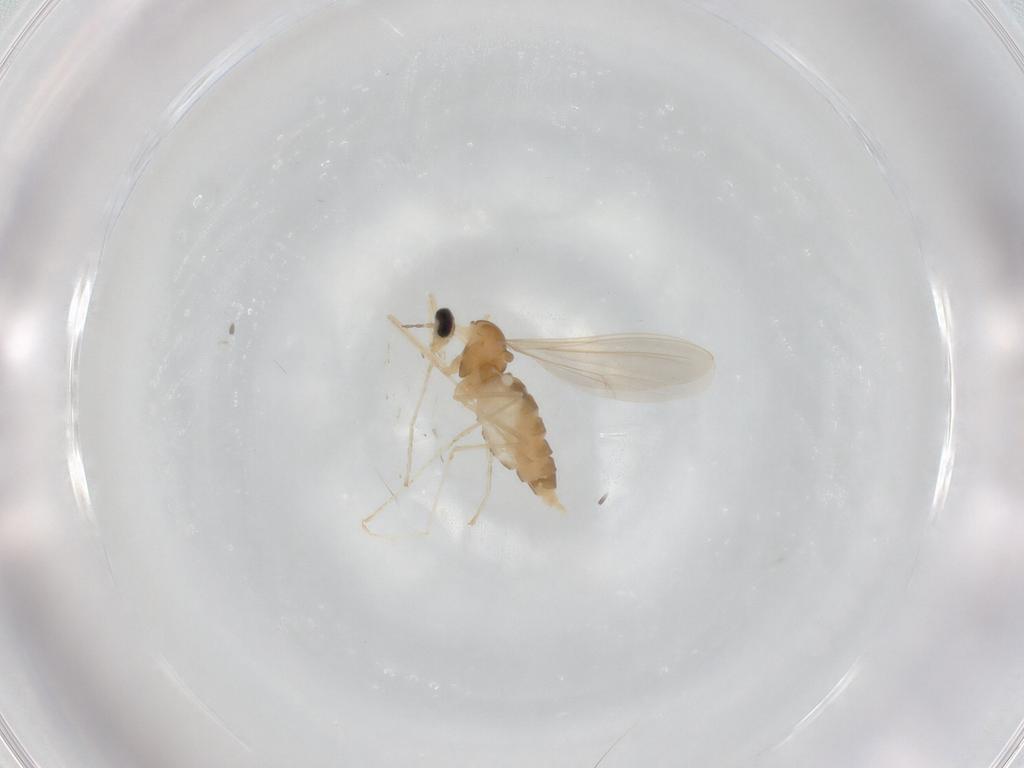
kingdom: Animalia
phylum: Arthropoda
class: Insecta
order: Diptera
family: Cecidomyiidae
